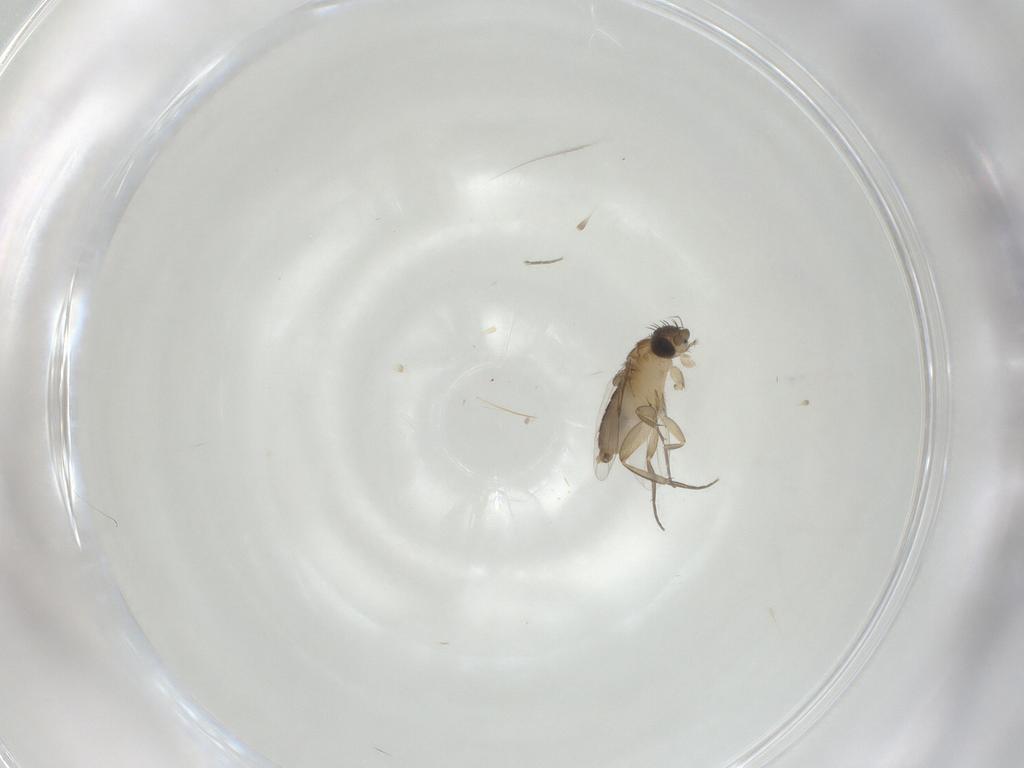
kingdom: Animalia
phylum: Arthropoda
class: Insecta
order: Diptera
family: Phoridae
